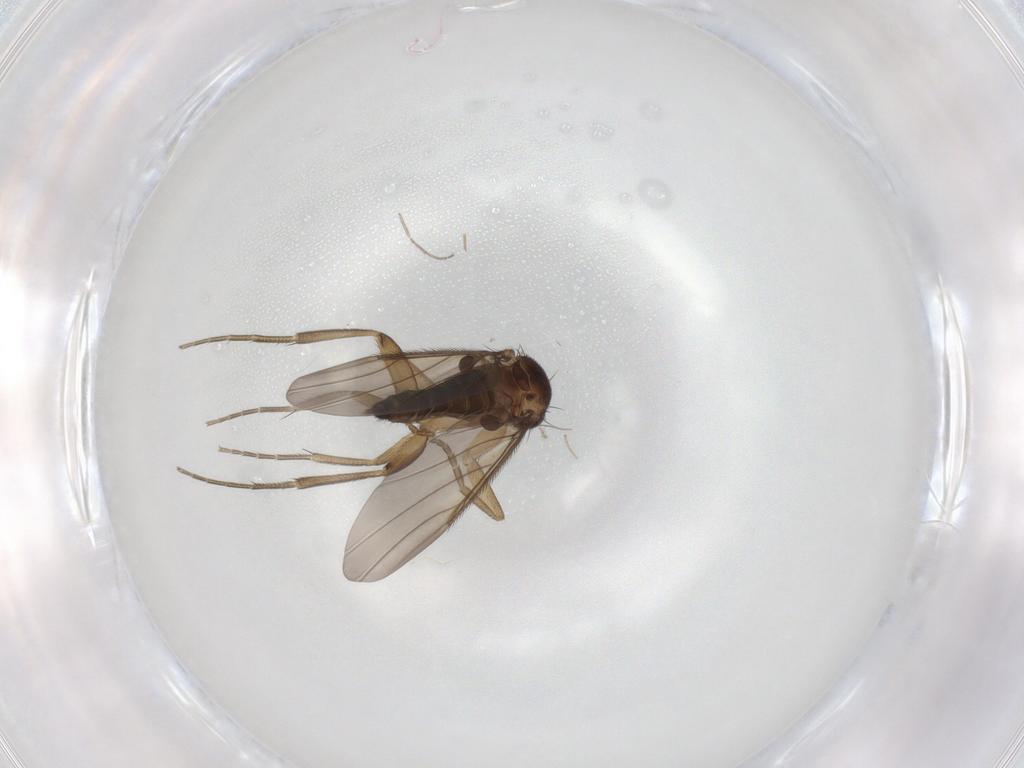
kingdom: Animalia
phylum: Arthropoda
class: Insecta
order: Diptera
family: Phoridae
